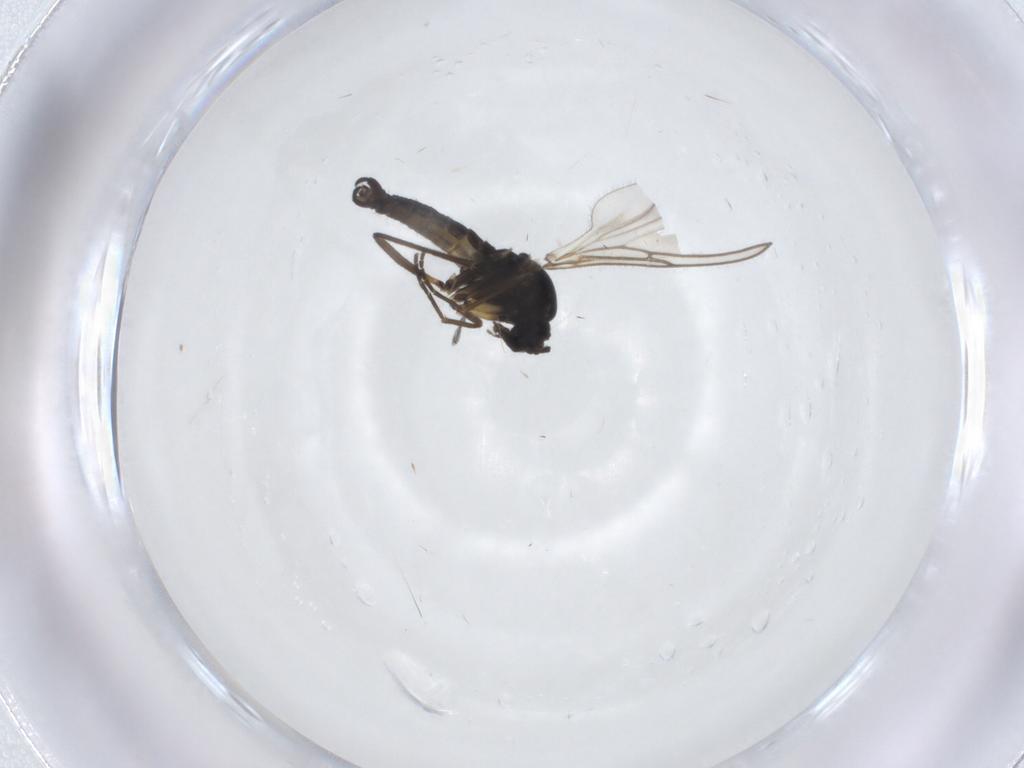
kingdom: Animalia
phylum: Arthropoda
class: Insecta
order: Diptera
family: Sciaridae
